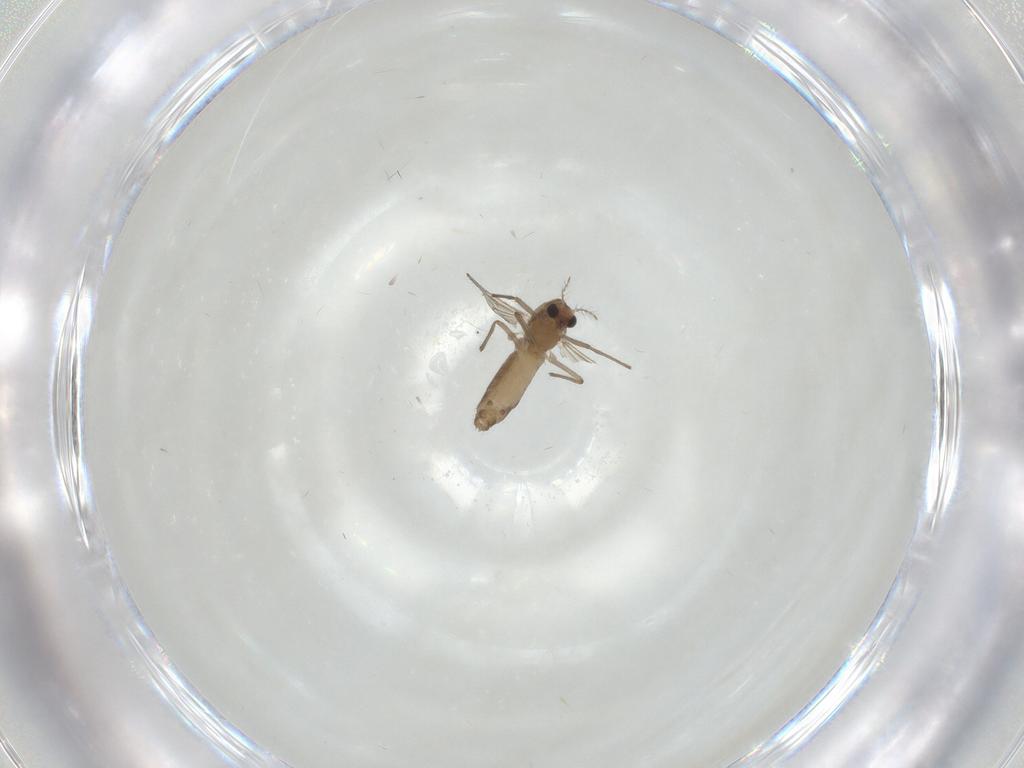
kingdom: Animalia
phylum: Arthropoda
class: Insecta
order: Diptera
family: Chironomidae
